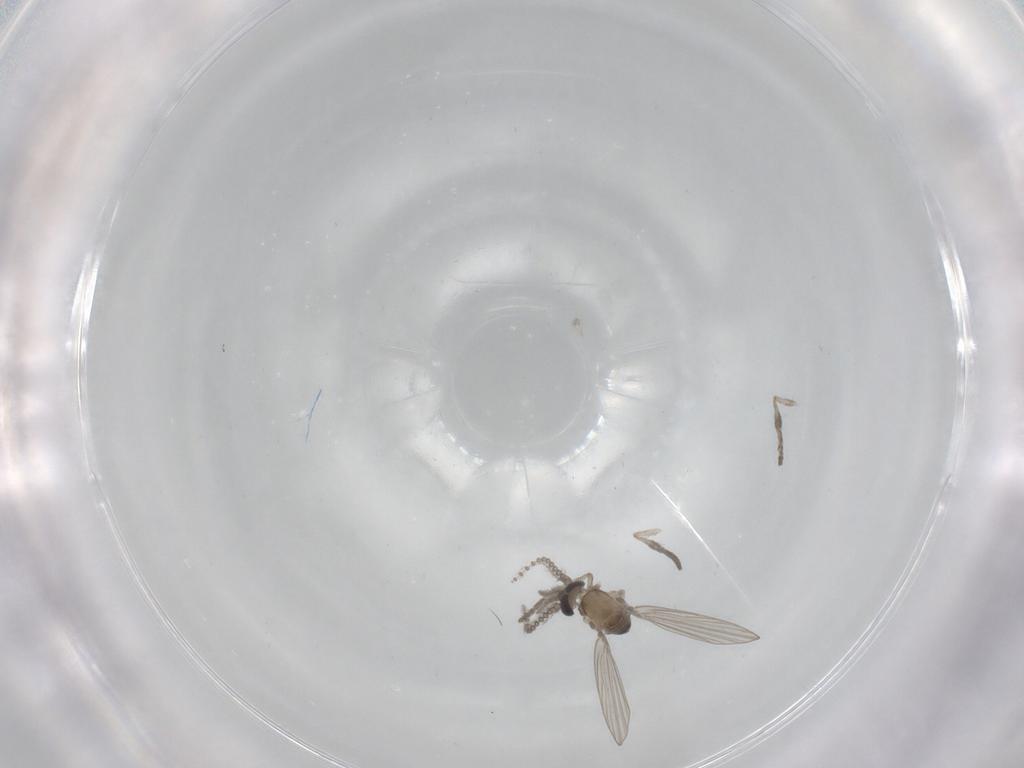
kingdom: Animalia
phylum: Arthropoda
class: Insecta
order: Diptera
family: Psychodidae
